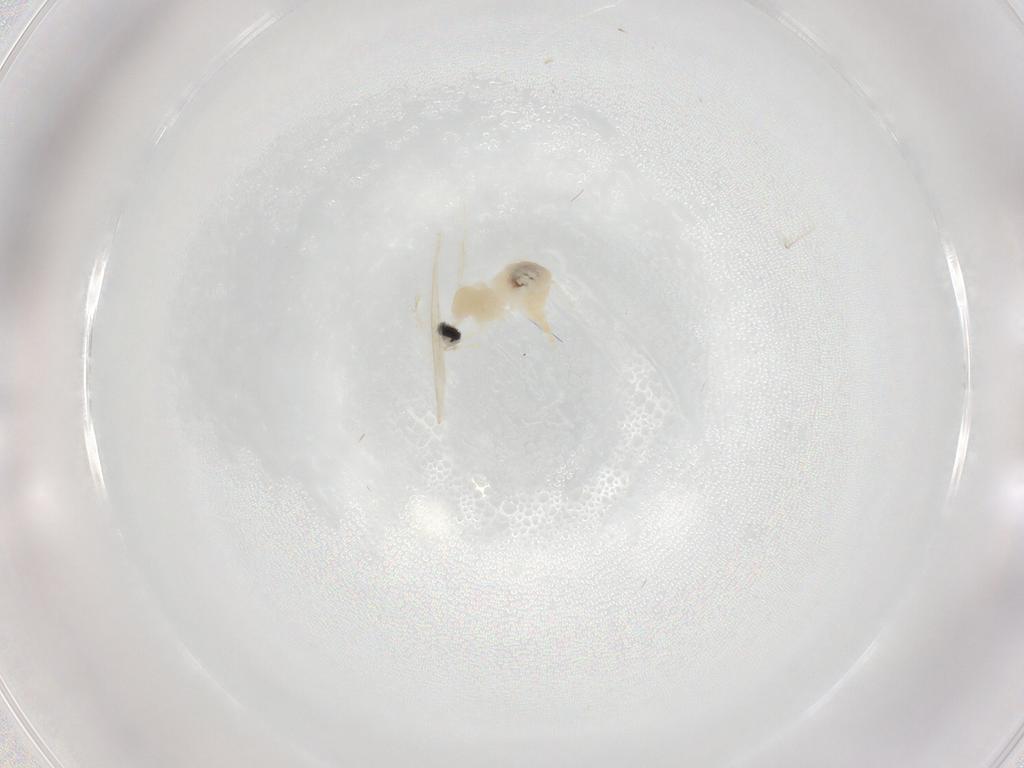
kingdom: Animalia
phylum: Arthropoda
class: Insecta
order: Diptera
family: Cecidomyiidae
